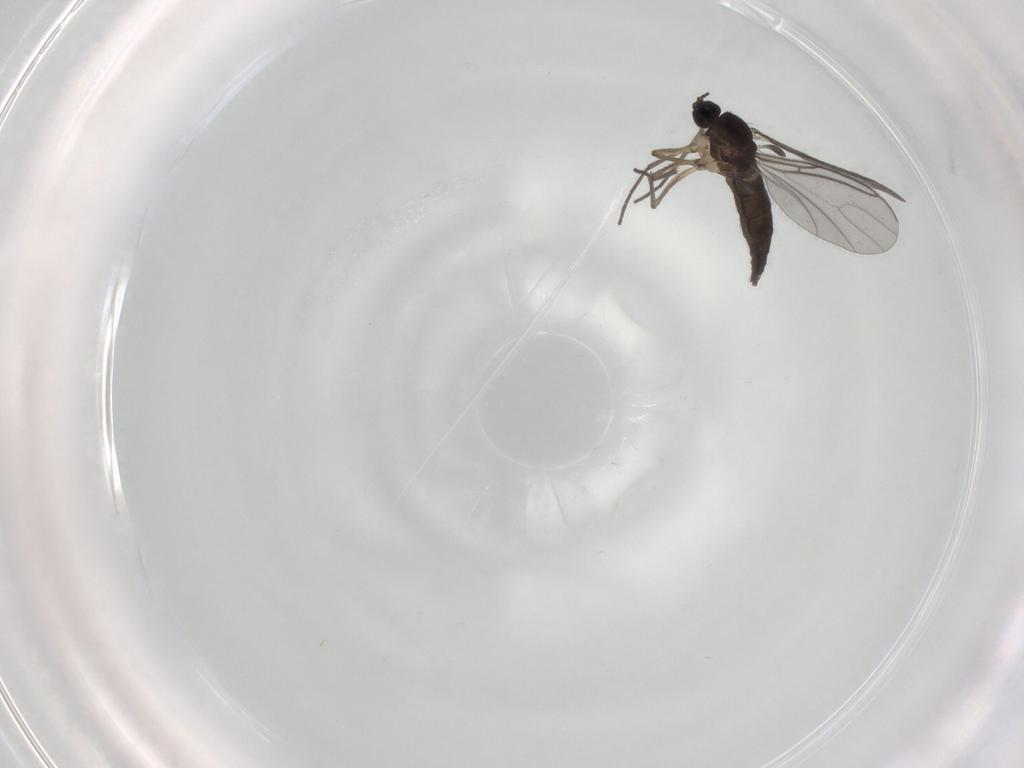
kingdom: Animalia
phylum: Arthropoda
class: Insecta
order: Diptera
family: Sciaridae
